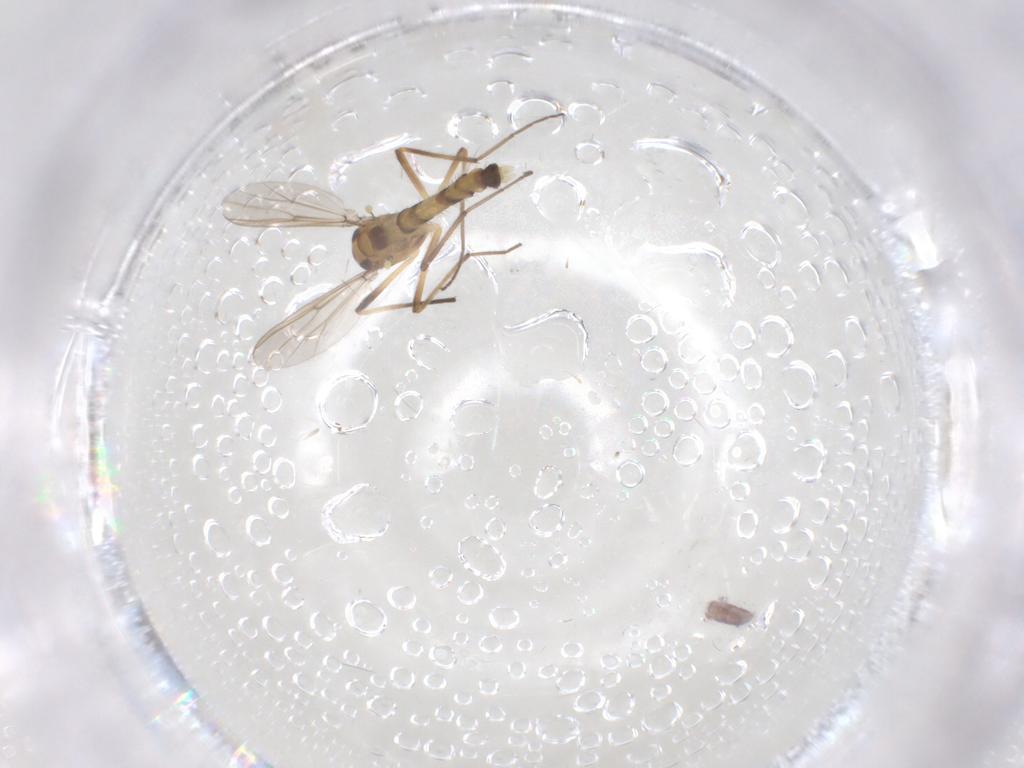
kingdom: Animalia
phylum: Arthropoda
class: Insecta
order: Diptera
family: Chironomidae
